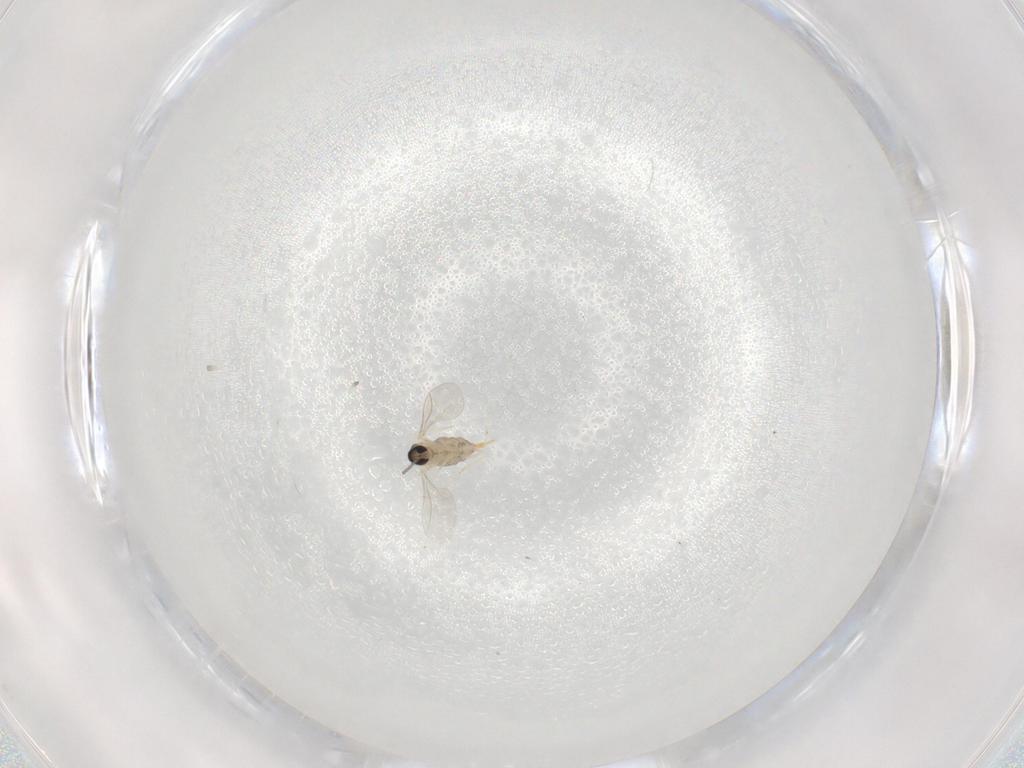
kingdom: Animalia
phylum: Arthropoda
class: Insecta
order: Diptera
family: Cecidomyiidae
